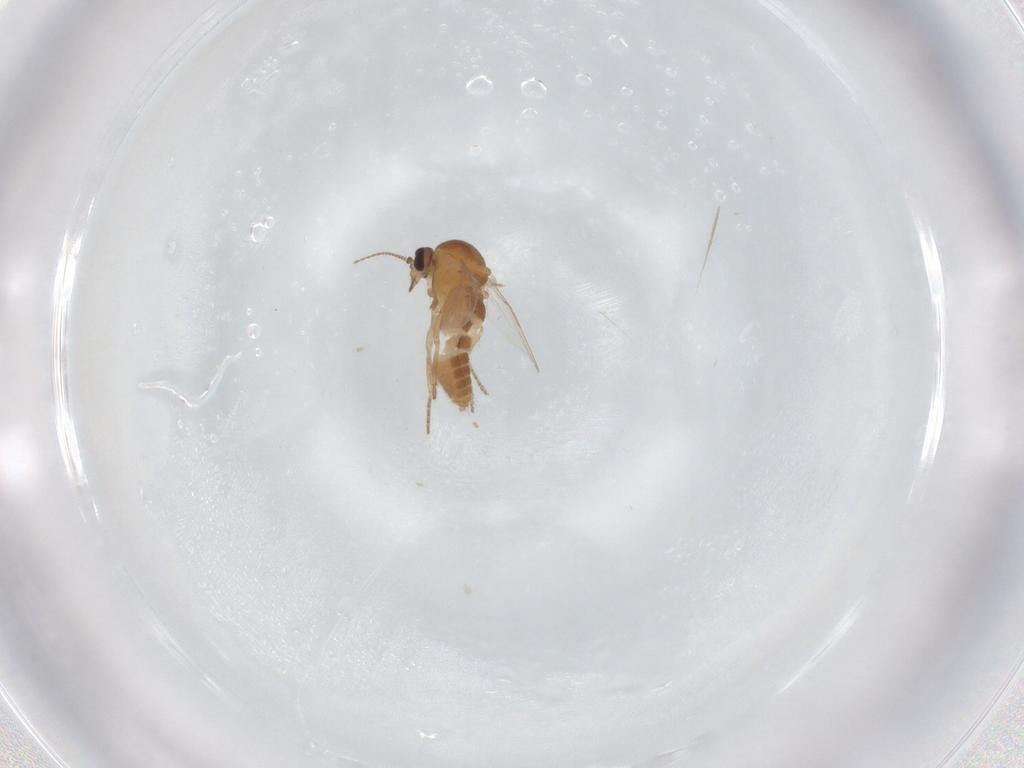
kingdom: Animalia
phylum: Arthropoda
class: Insecta
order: Diptera
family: Ceratopogonidae
